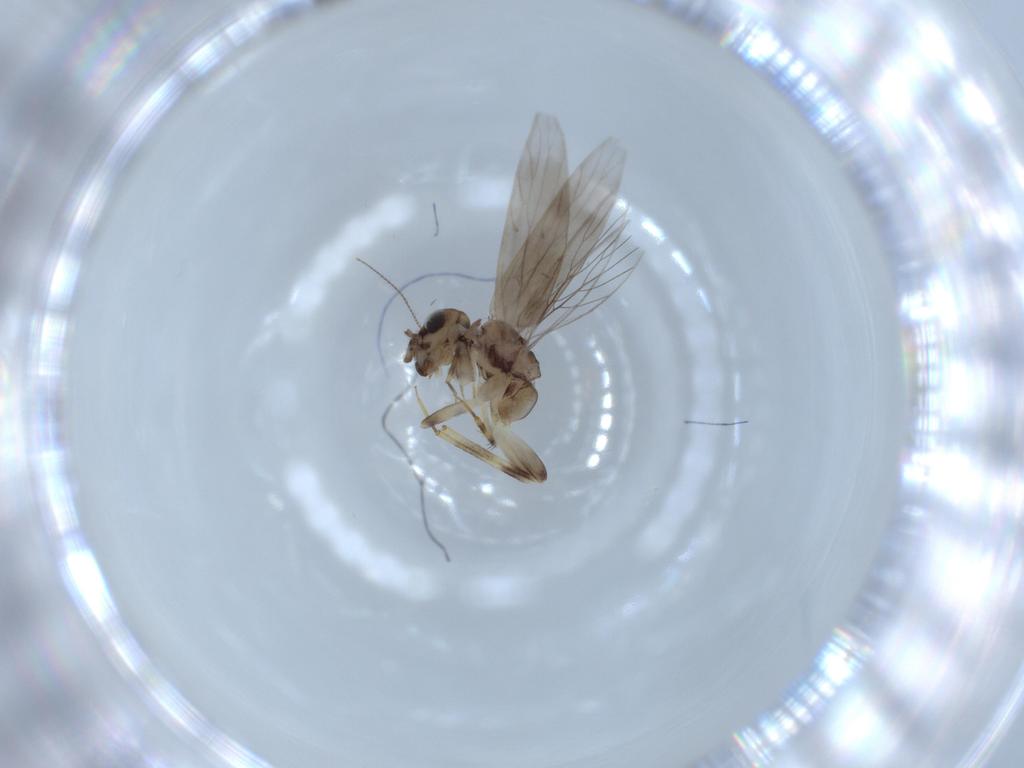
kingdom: Animalia
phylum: Arthropoda
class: Insecta
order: Psocodea
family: Lepidopsocidae
